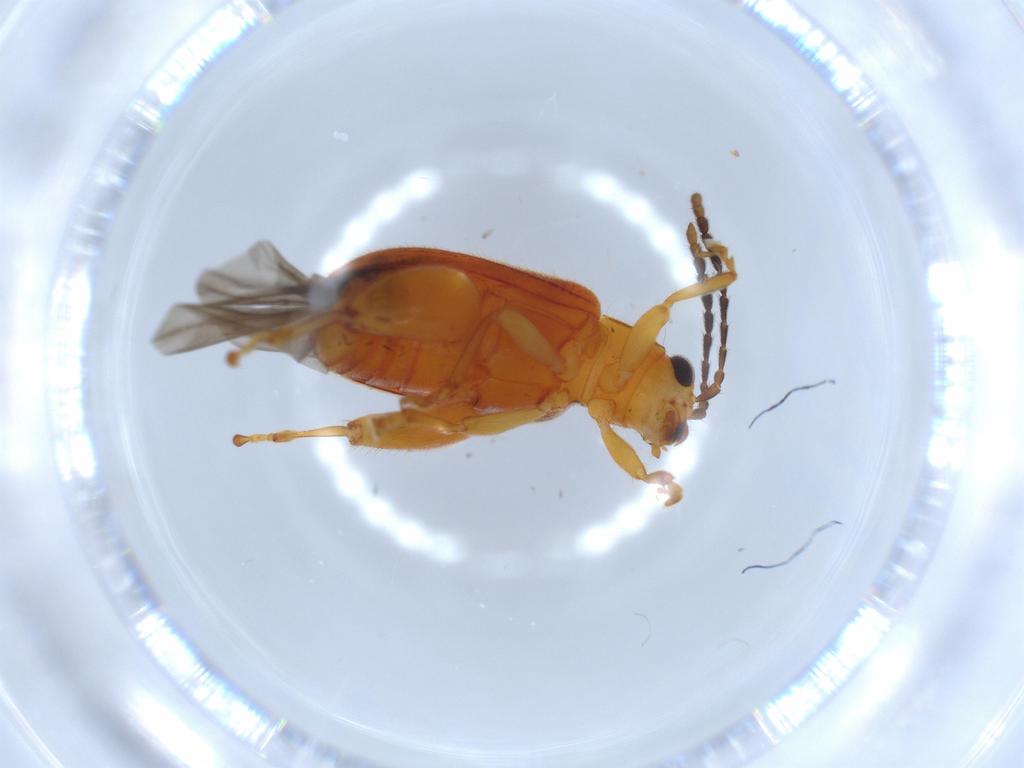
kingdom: Animalia
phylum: Arthropoda
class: Insecta
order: Coleoptera
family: Chrysomelidae
